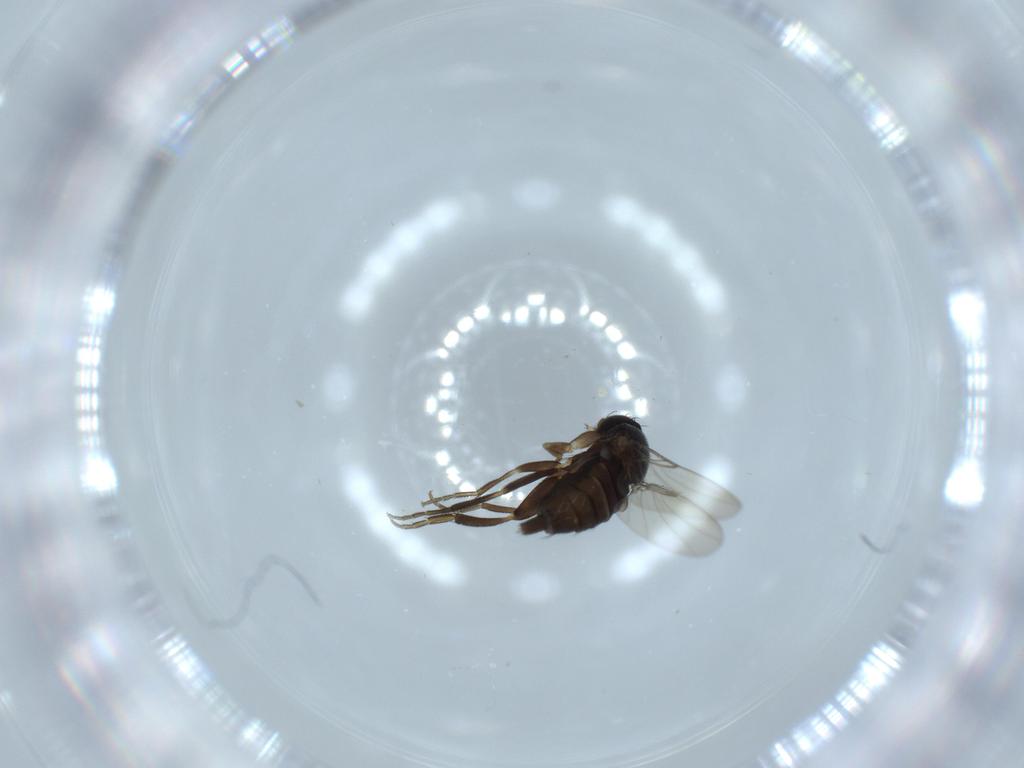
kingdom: Animalia
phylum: Arthropoda
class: Insecta
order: Diptera
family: Phoridae
